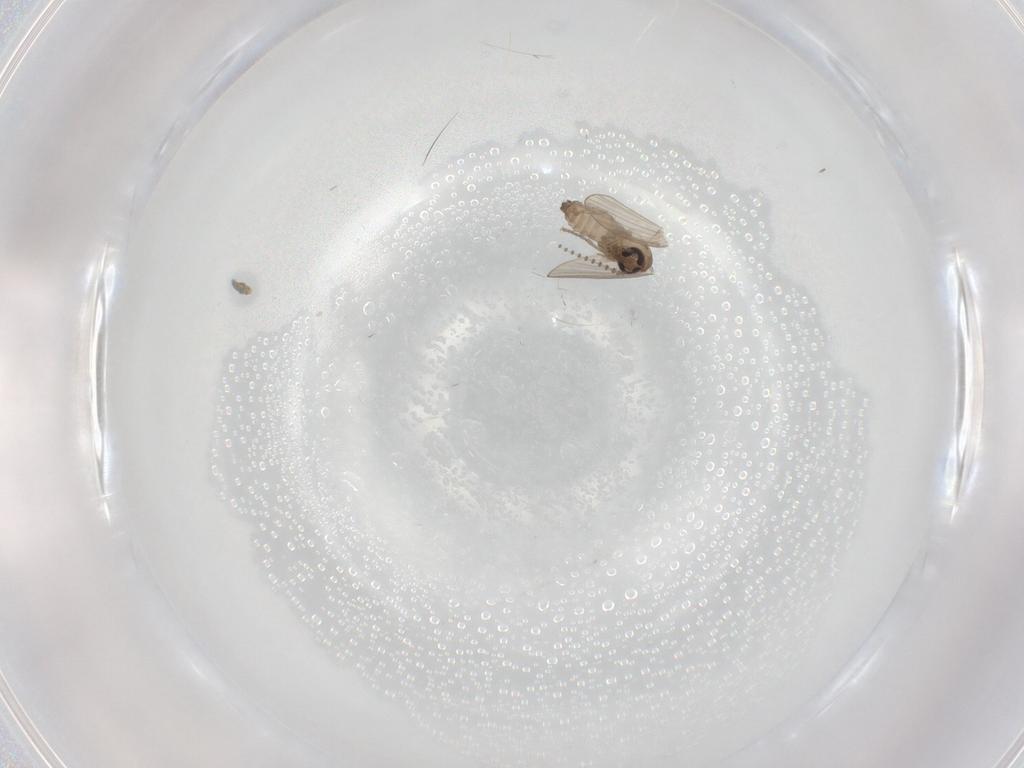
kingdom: Animalia
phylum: Arthropoda
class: Insecta
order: Diptera
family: Psychodidae
